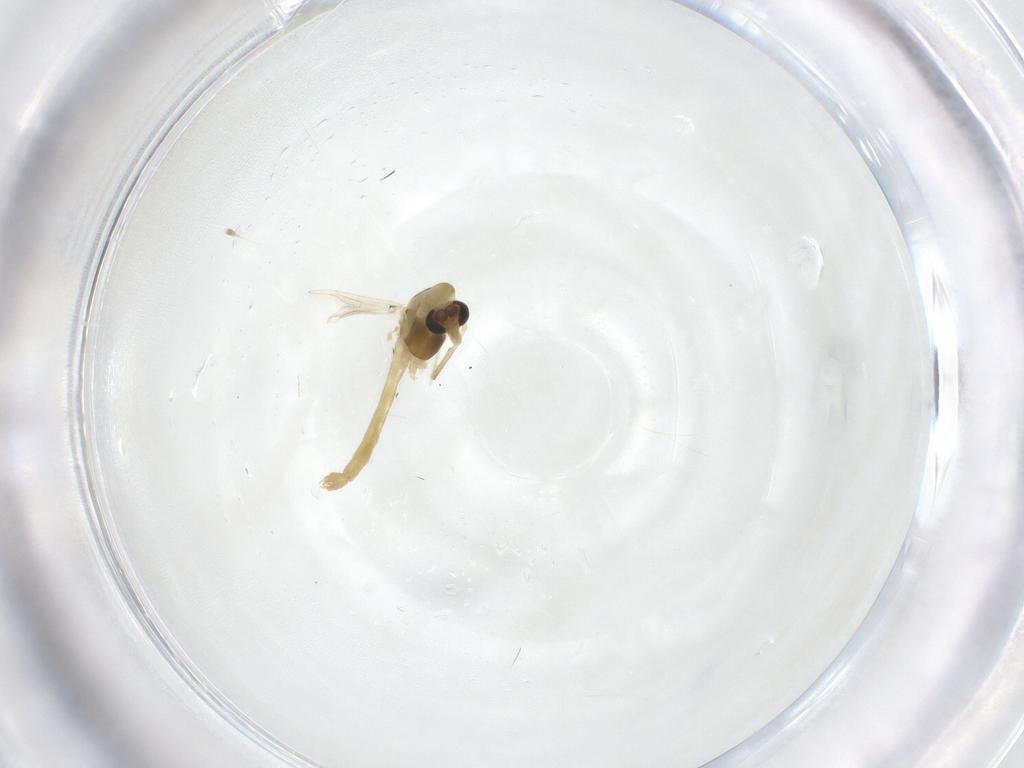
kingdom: Animalia
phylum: Arthropoda
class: Insecta
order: Diptera
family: Chironomidae
